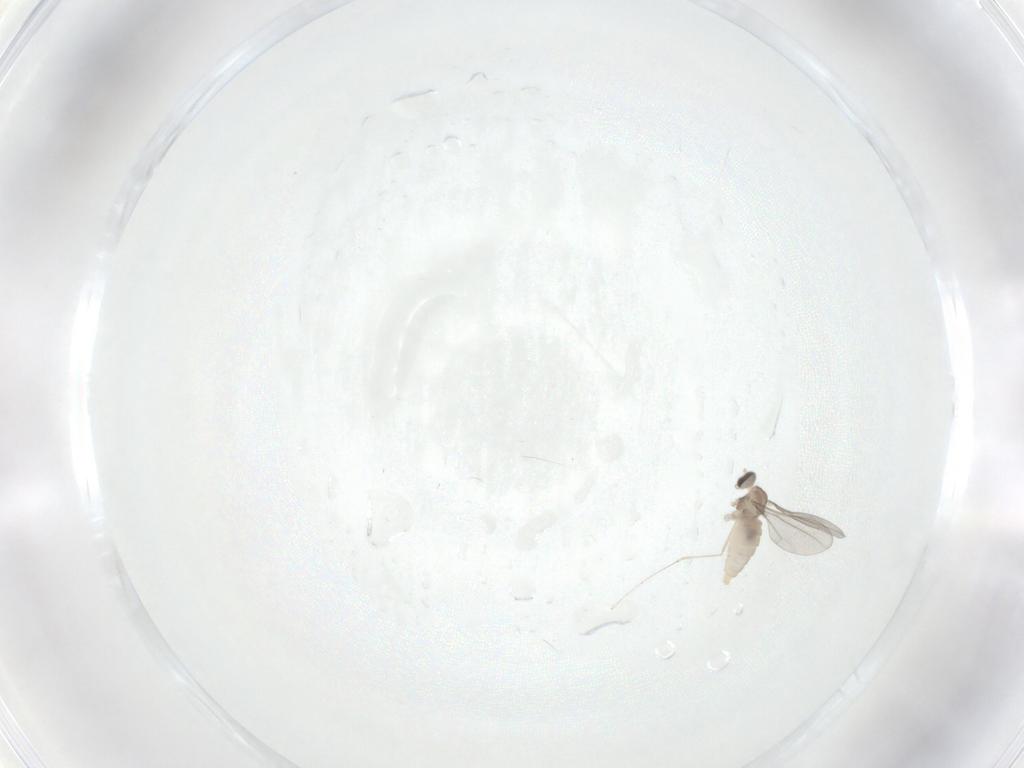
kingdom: Animalia
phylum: Arthropoda
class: Insecta
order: Diptera
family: Cecidomyiidae
